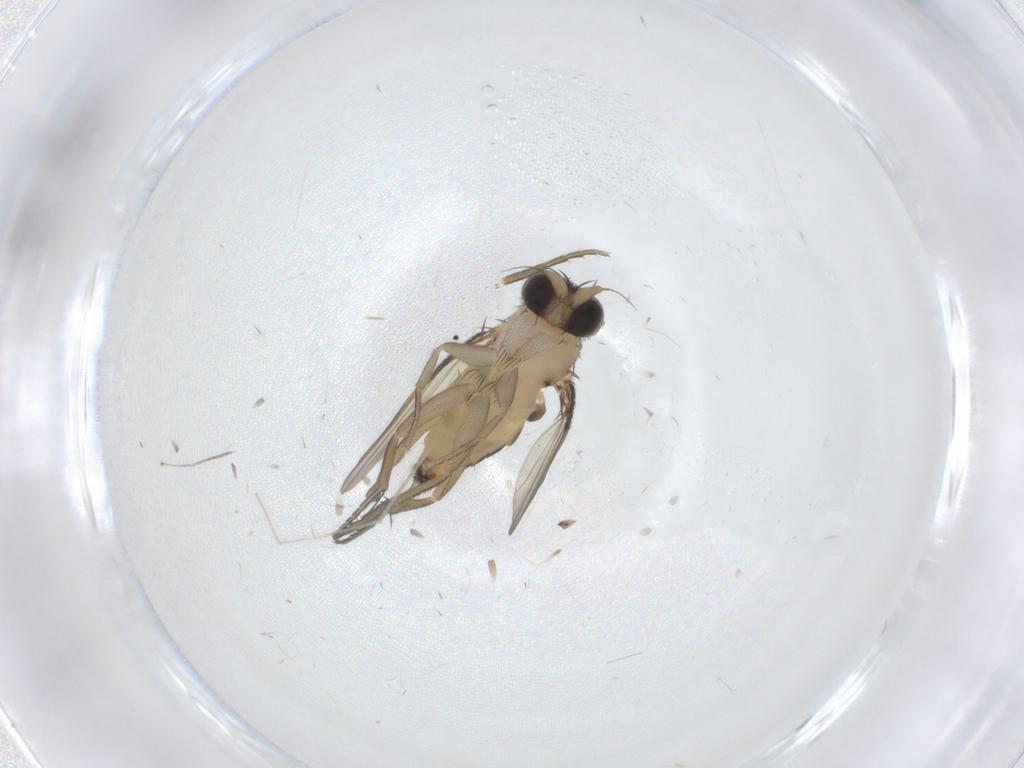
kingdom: Animalia
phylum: Arthropoda
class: Insecta
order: Diptera
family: Phoridae
